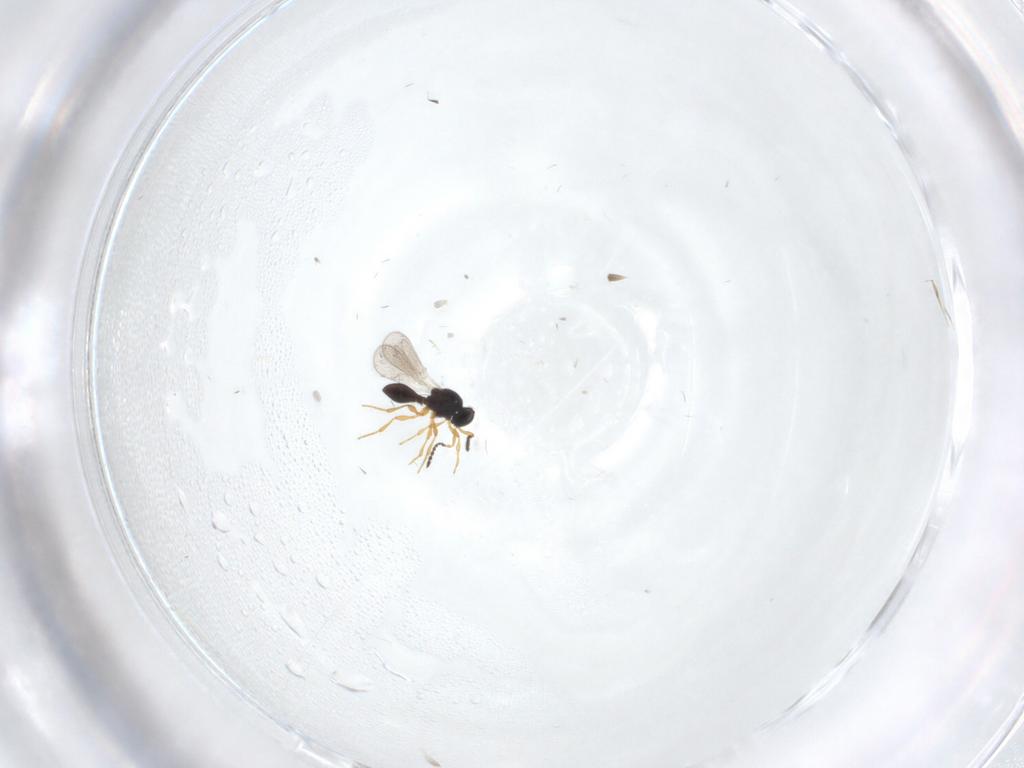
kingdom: Animalia
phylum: Arthropoda
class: Insecta
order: Hymenoptera
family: Platygastridae
